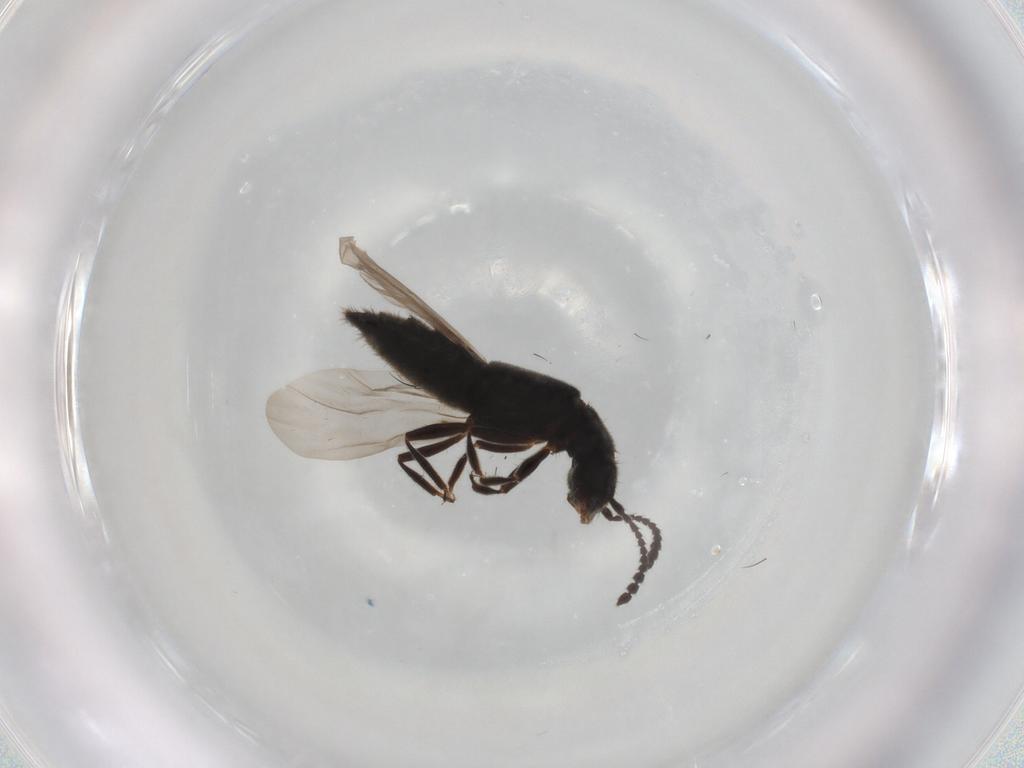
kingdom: Animalia
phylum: Arthropoda
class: Insecta
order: Coleoptera
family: Staphylinidae
